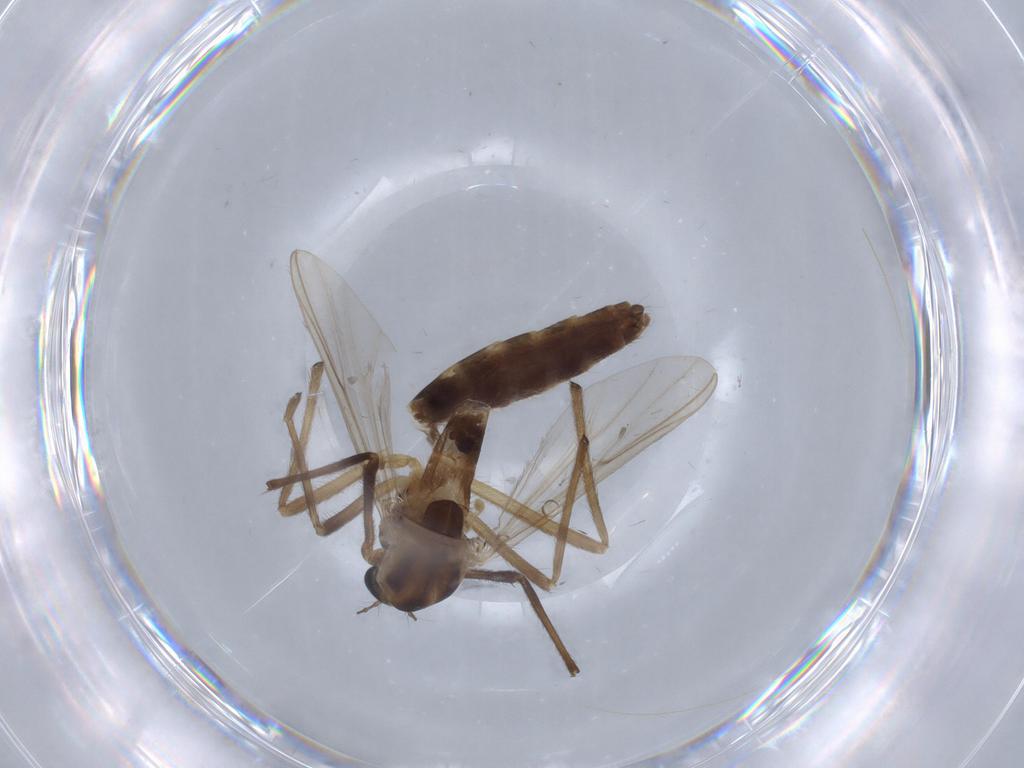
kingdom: Animalia
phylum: Arthropoda
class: Insecta
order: Diptera
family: Chironomidae
